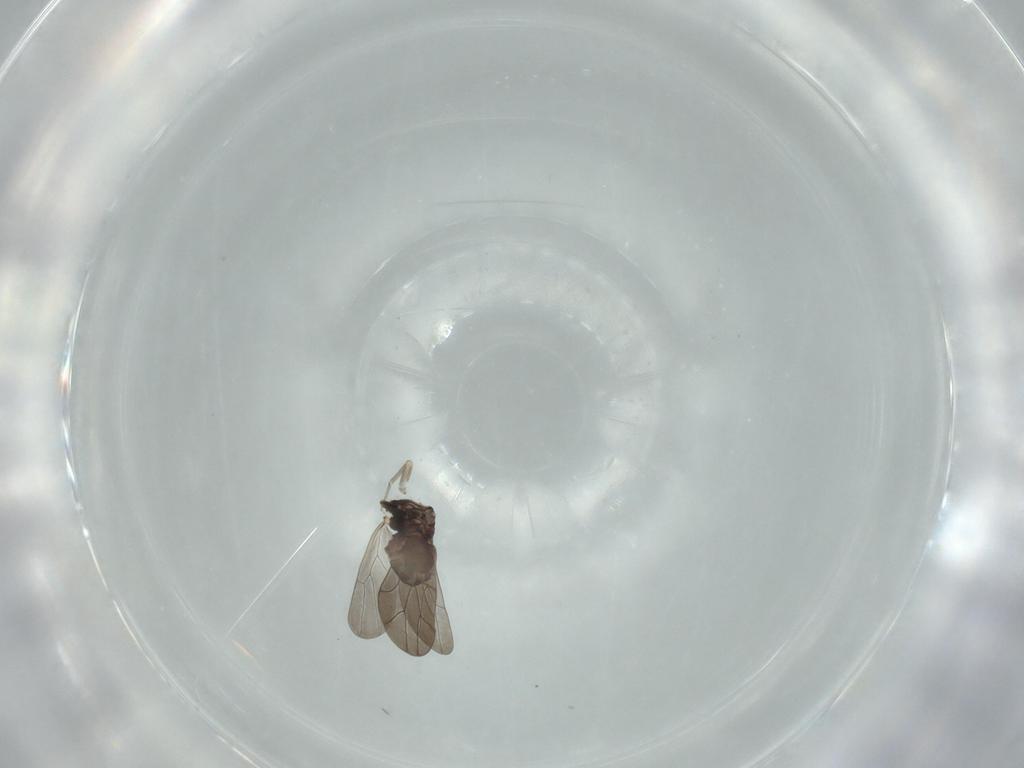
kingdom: Animalia
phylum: Arthropoda
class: Insecta
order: Psocodea
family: Lepidopsocidae
